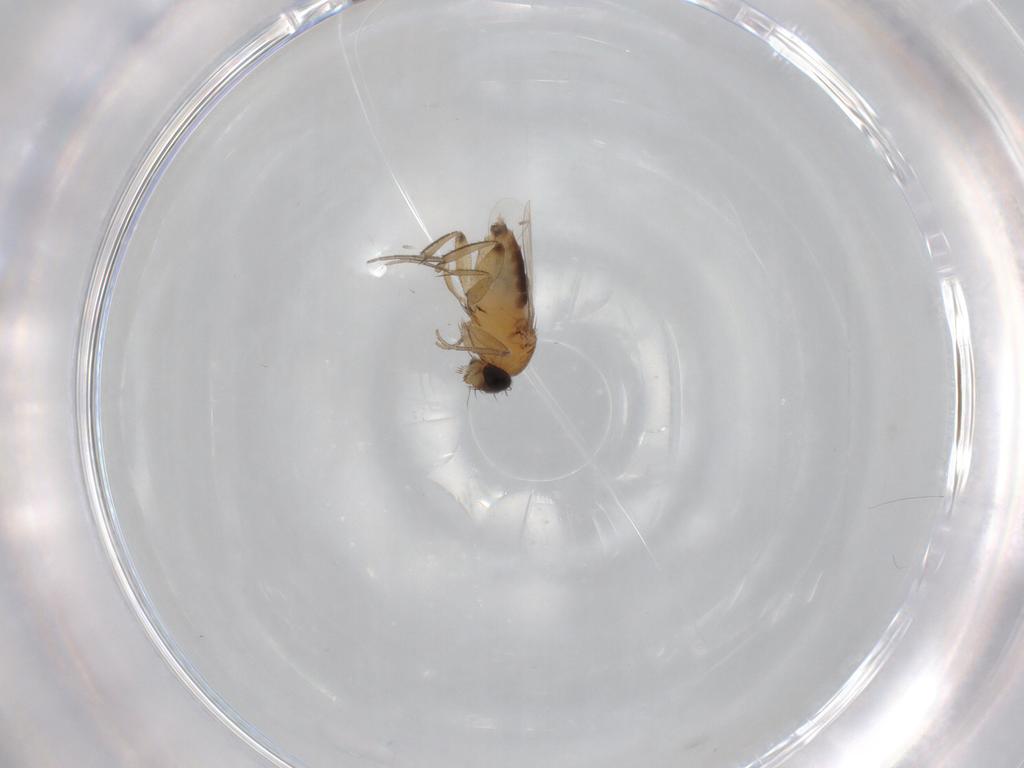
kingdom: Animalia
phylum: Arthropoda
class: Insecta
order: Diptera
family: Phoridae
